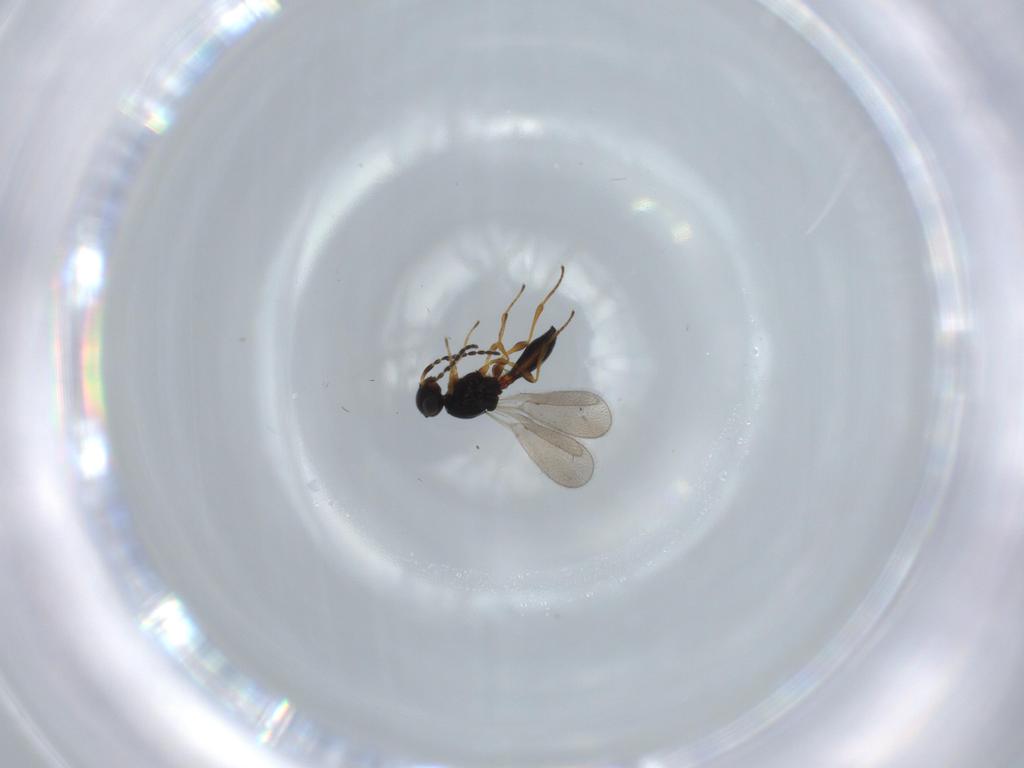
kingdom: Animalia
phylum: Arthropoda
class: Insecta
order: Hymenoptera
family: Platygastridae
